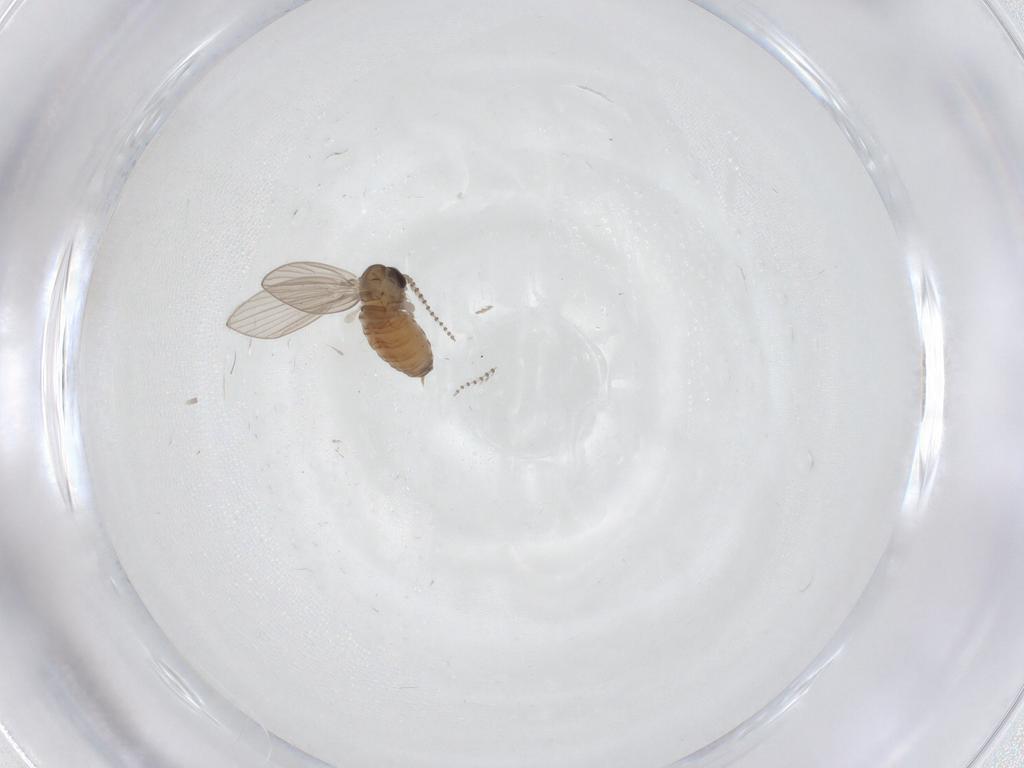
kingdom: Animalia
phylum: Arthropoda
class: Insecta
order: Diptera
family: Psychodidae
